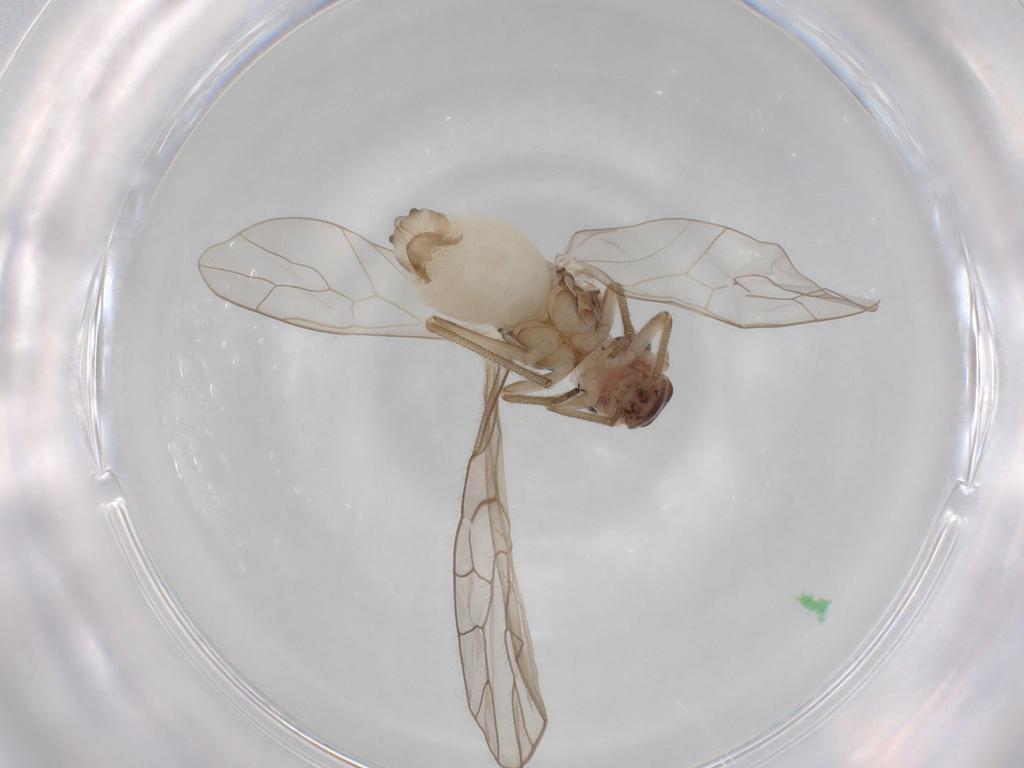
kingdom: Animalia
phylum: Arthropoda
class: Insecta
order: Psocodea
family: Stenopsocidae
